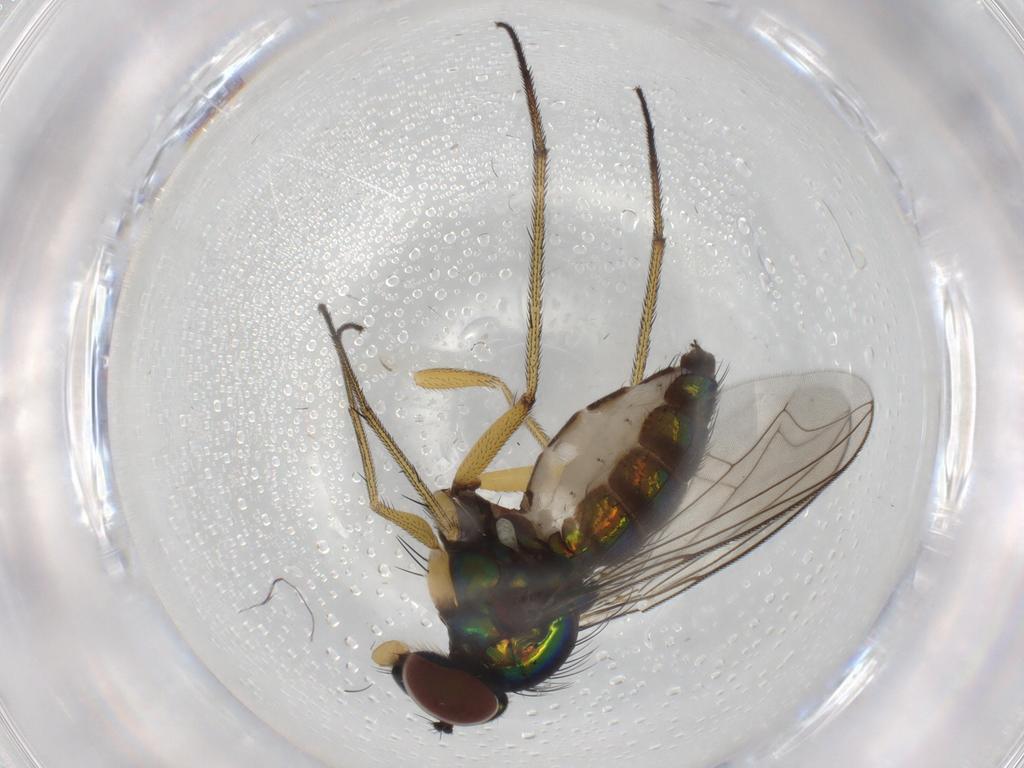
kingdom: Animalia
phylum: Arthropoda
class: Insecta
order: Diptera
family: Dolichopodidae
